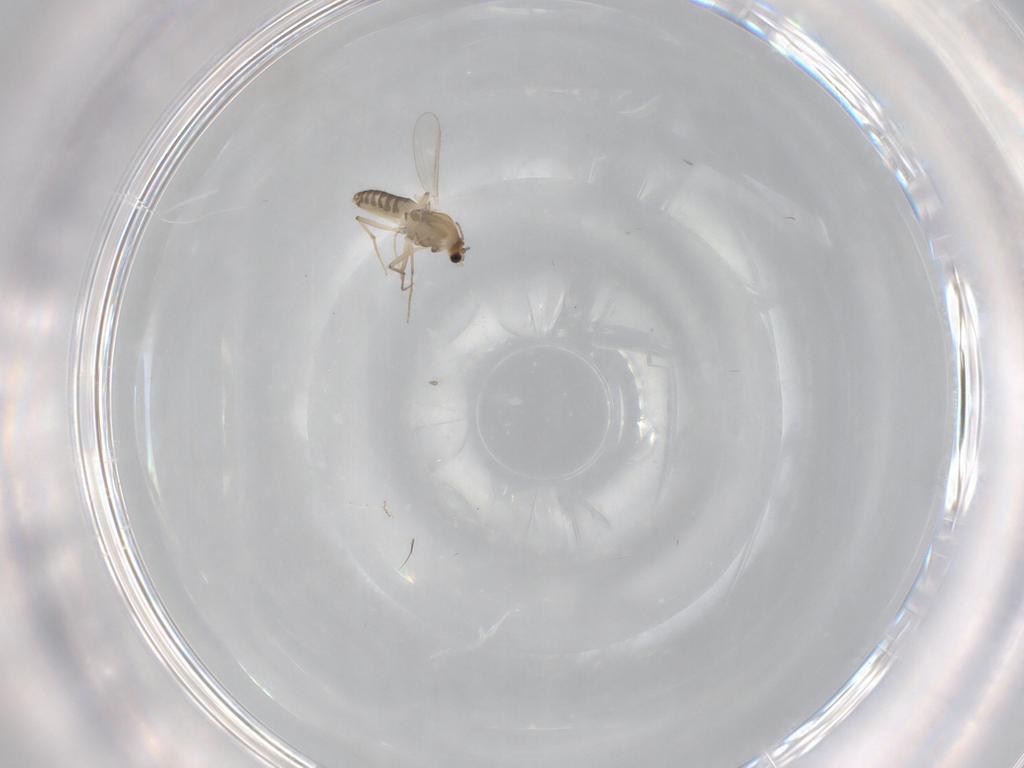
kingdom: Animalia
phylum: Arthropoda
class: Insecta
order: Diptera
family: Chironomidae
